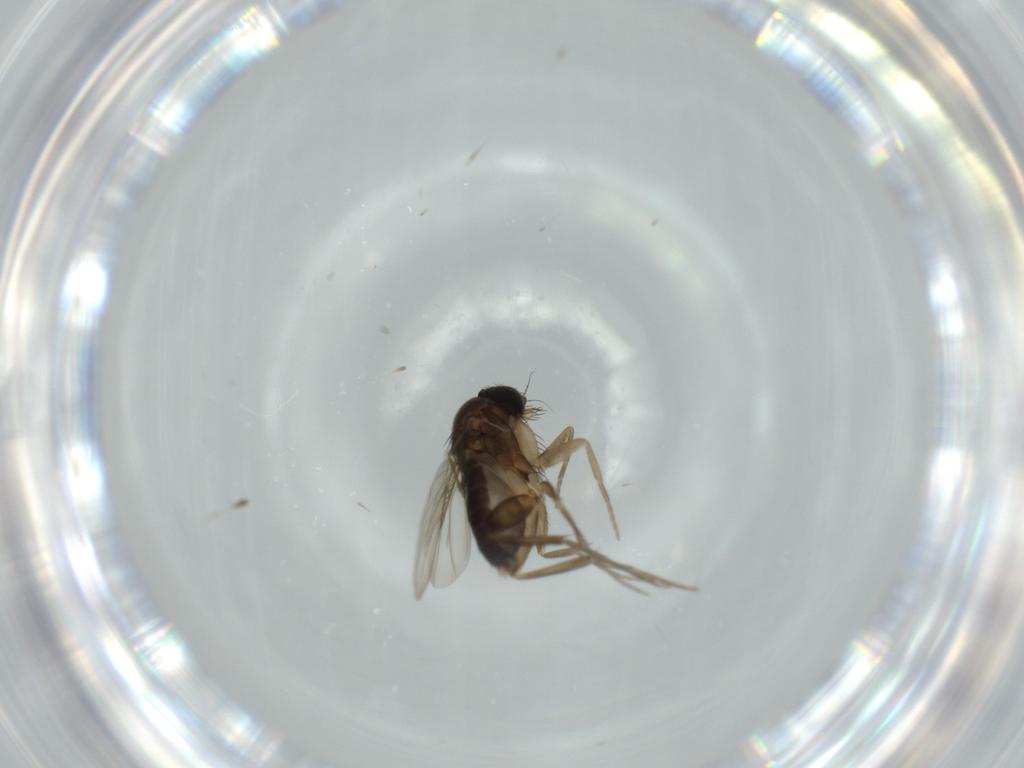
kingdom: Animalia
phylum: Arthropoda
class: Insecta
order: Diptera
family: Phoridae
